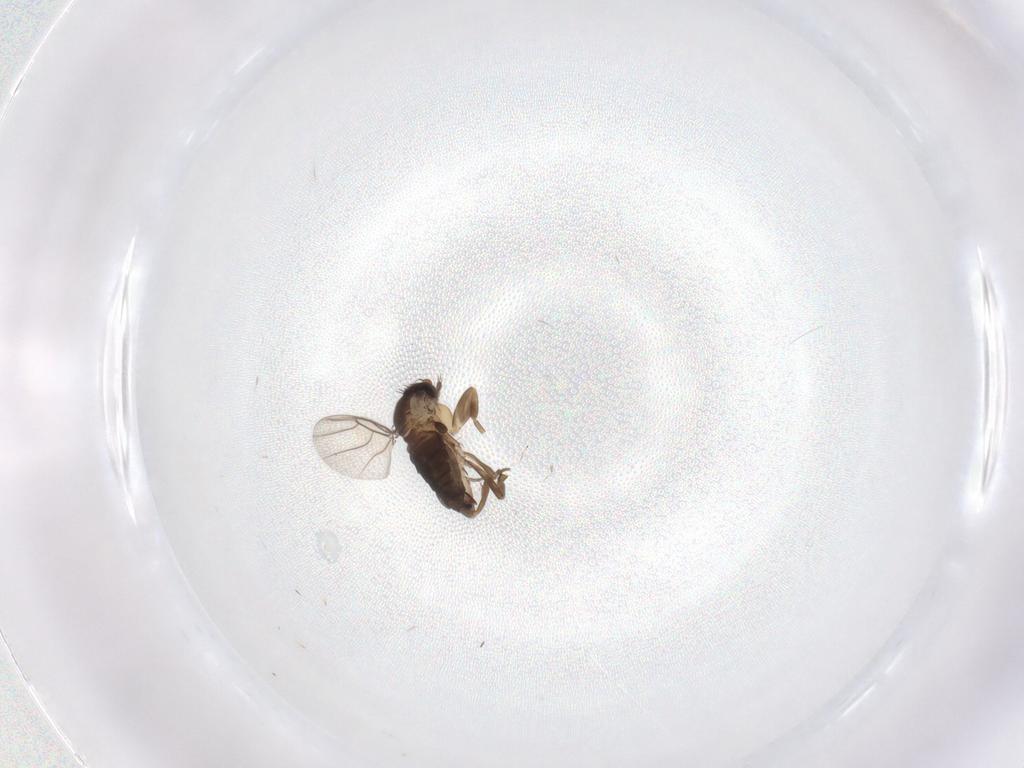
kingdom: Animalia
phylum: Arthropoda
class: Insecta
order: Diptera
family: Phoridae
